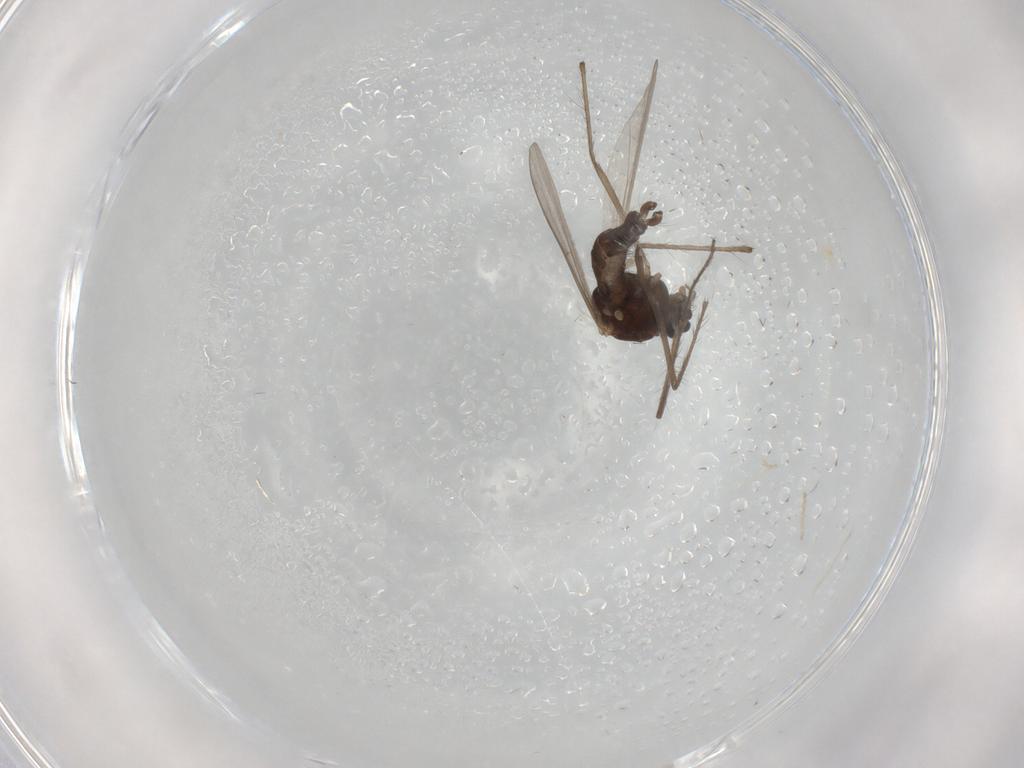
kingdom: Animalia
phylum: Arthropoda
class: Insecta
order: Diptera
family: Chironomidae
